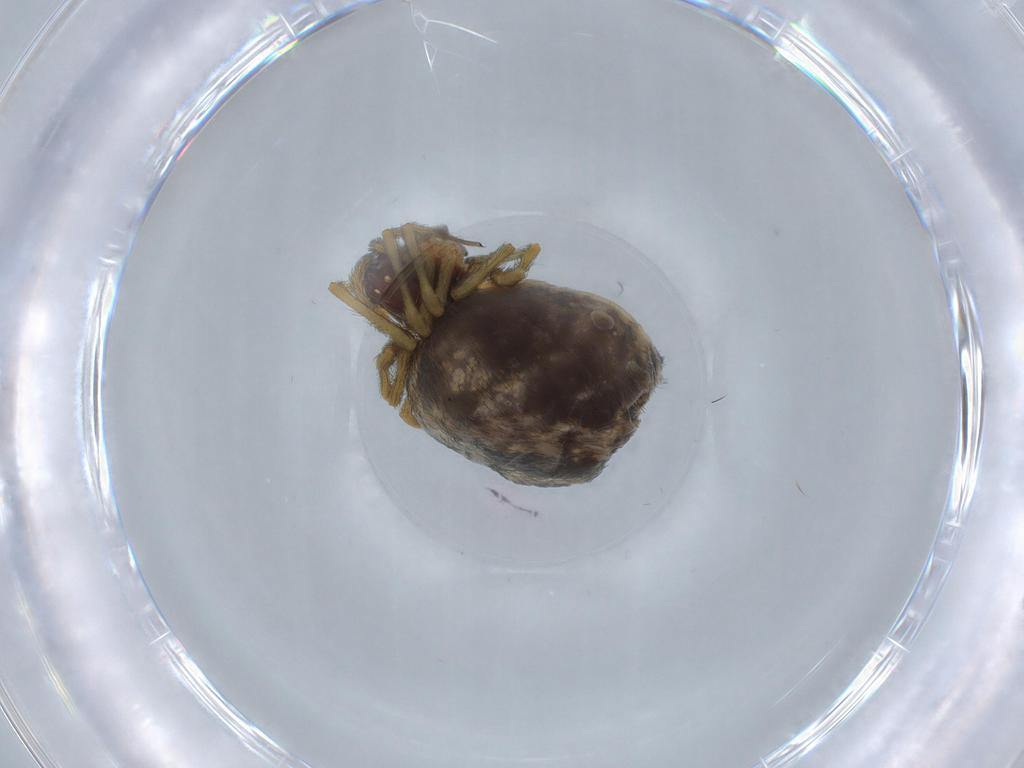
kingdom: Animalia
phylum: Arthropoda
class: Arachnida
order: Araneae
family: Dictynidae
